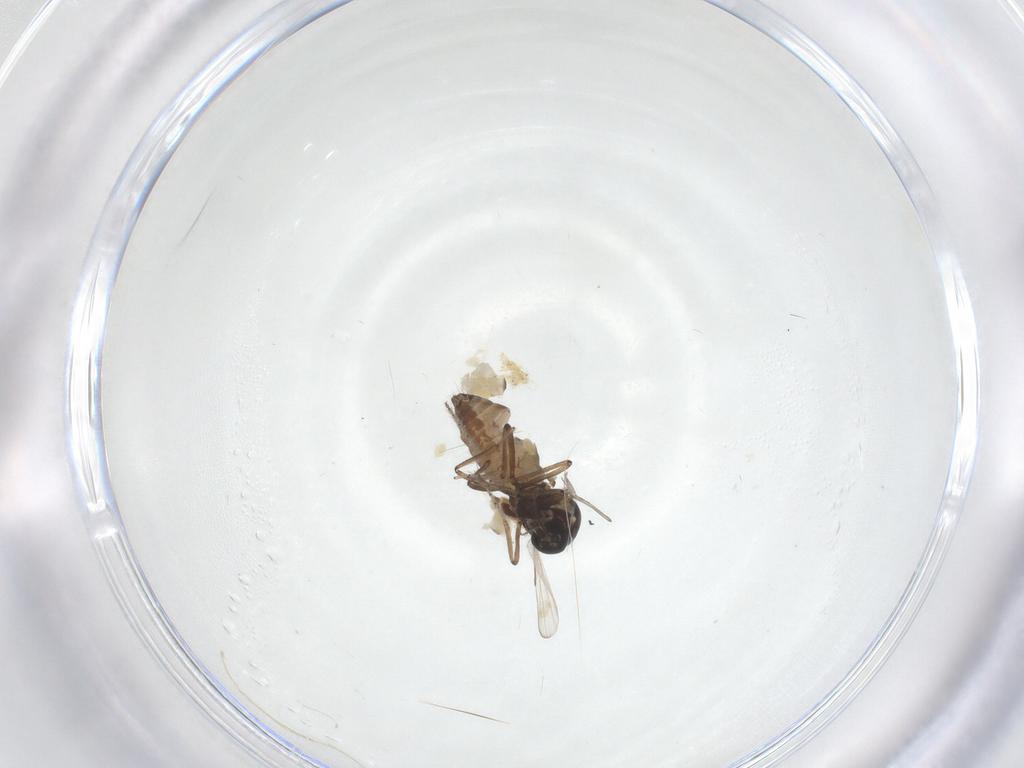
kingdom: Animalia
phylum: Arthropoda
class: Insecta
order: Diptera
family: Ceratopogonidae
